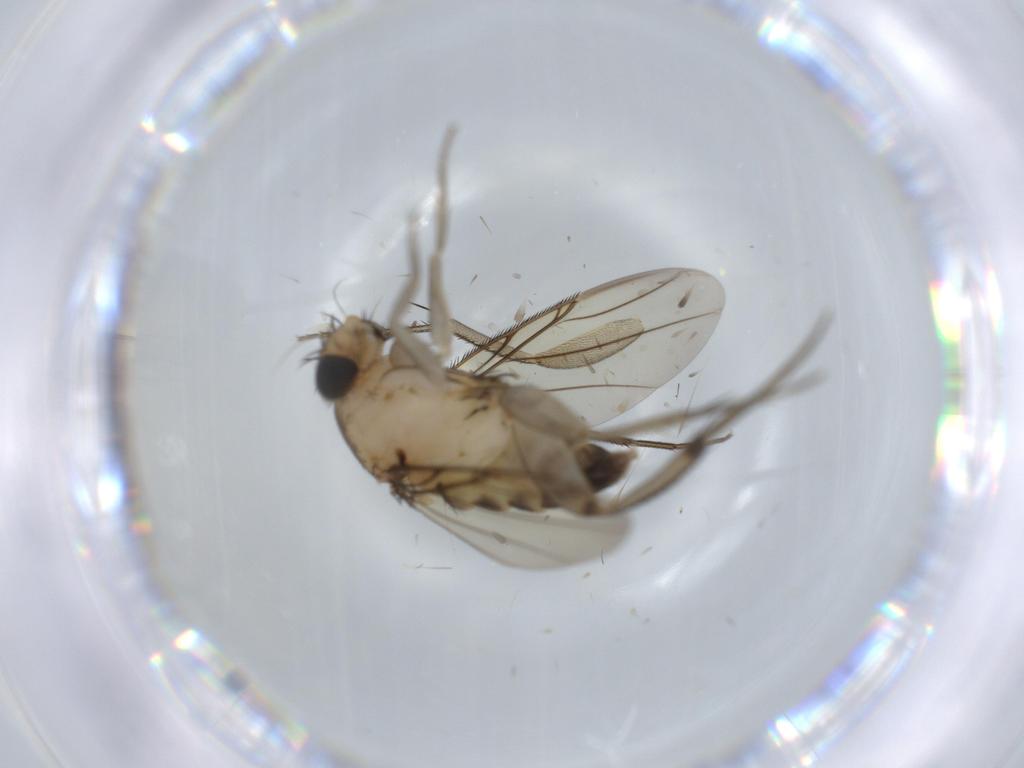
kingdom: Animalia
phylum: Arthropoda
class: Insecta
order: Diptera
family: Phoridae
